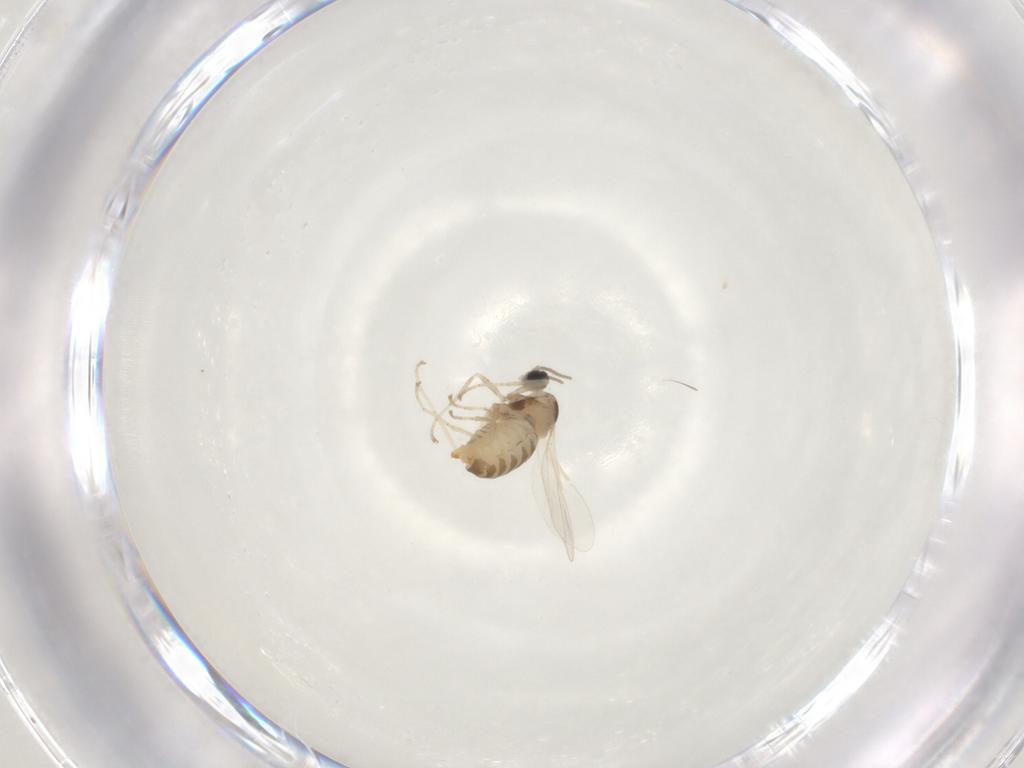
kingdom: Animalia
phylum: Arthropoda
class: Insecta
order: Diptera
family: Cecidomyiidae
